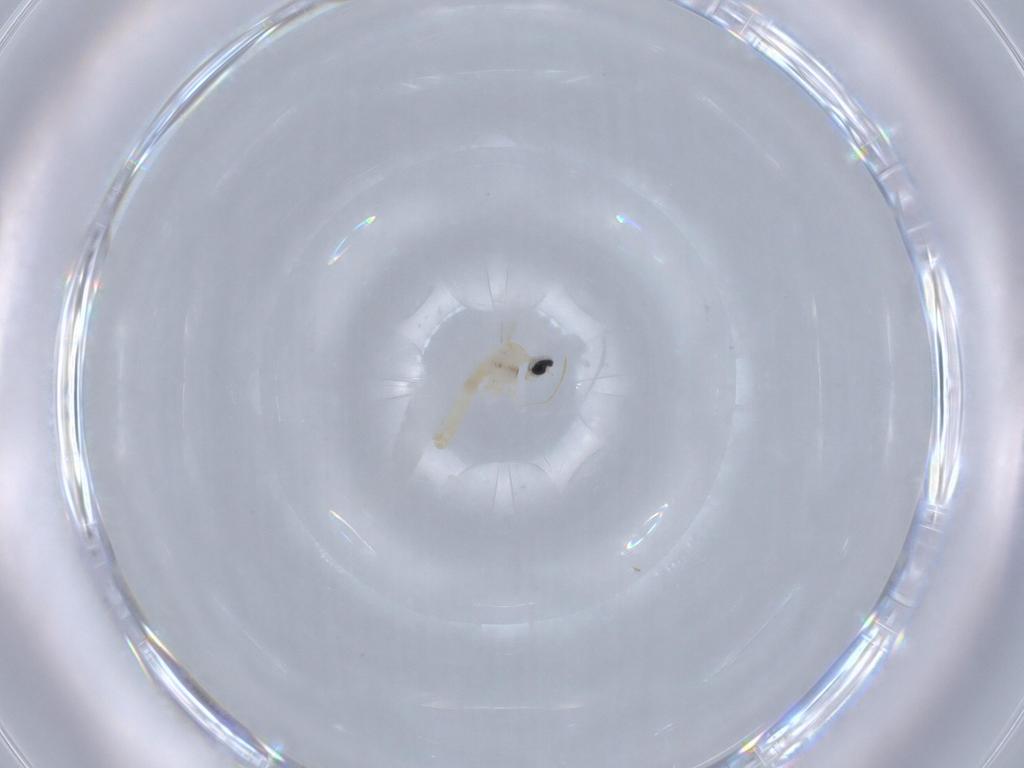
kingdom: Animalia
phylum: Arthropoda
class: Insecta
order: Diptera
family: Cecidomyiidae
